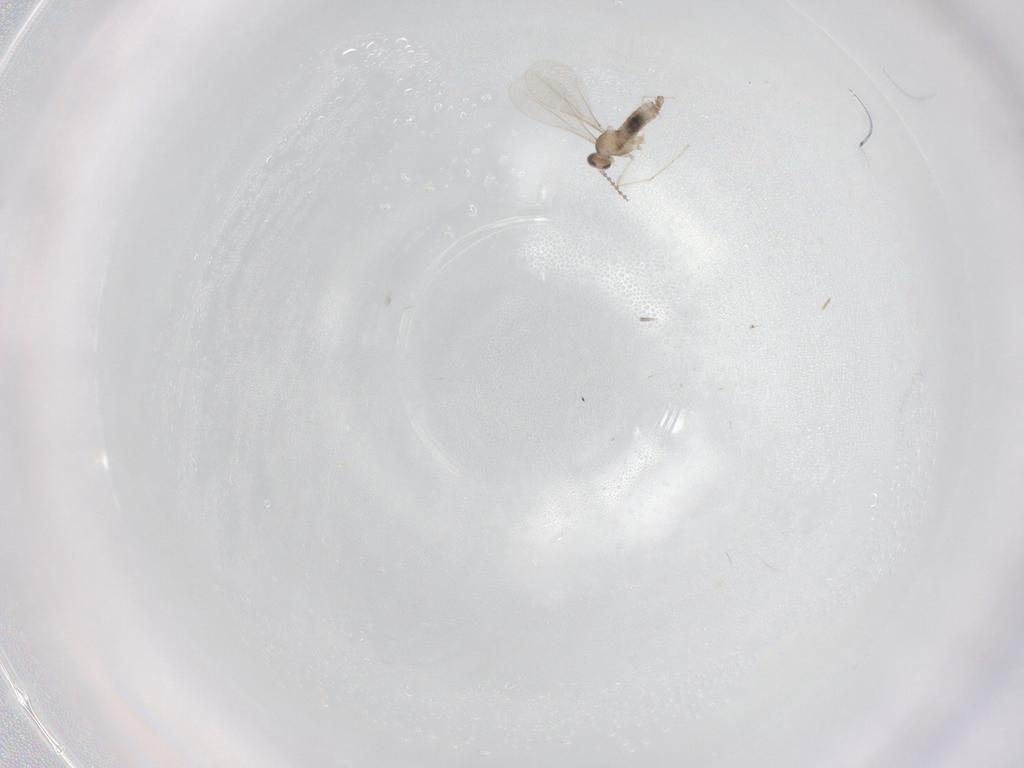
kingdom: Animalia
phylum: Arthropoda
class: Insecta
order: Diptera
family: Cecidomyiidae
